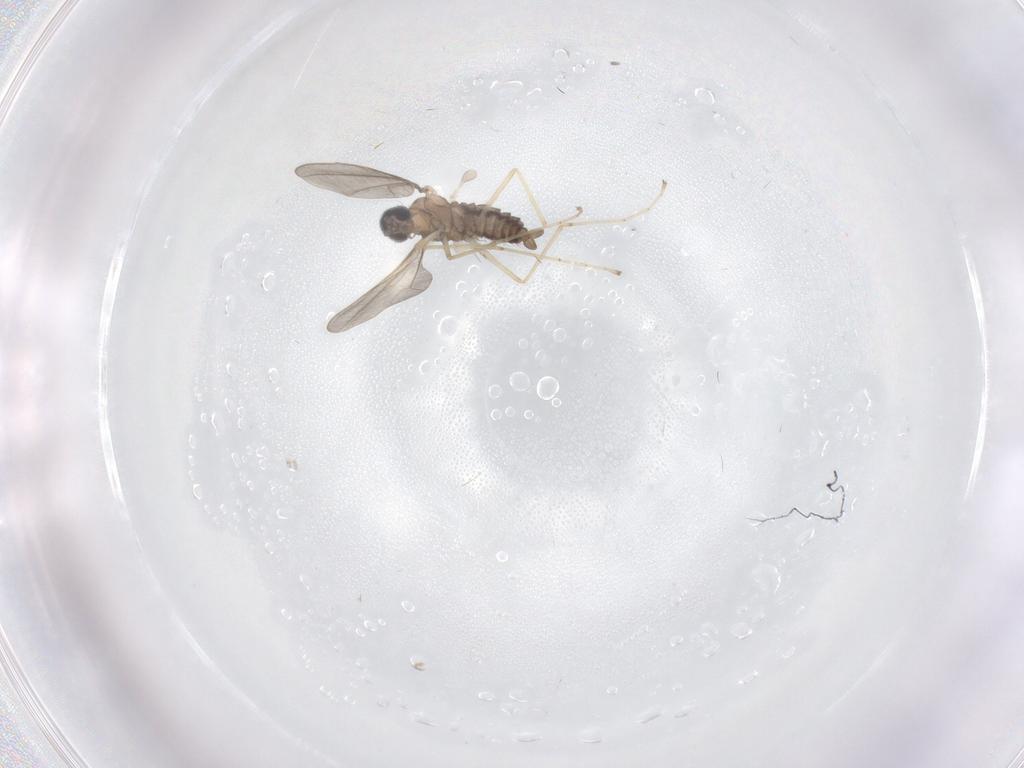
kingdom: Animalia
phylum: Arthropoda
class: Insecta
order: Diptera
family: Cecidomyiidae
